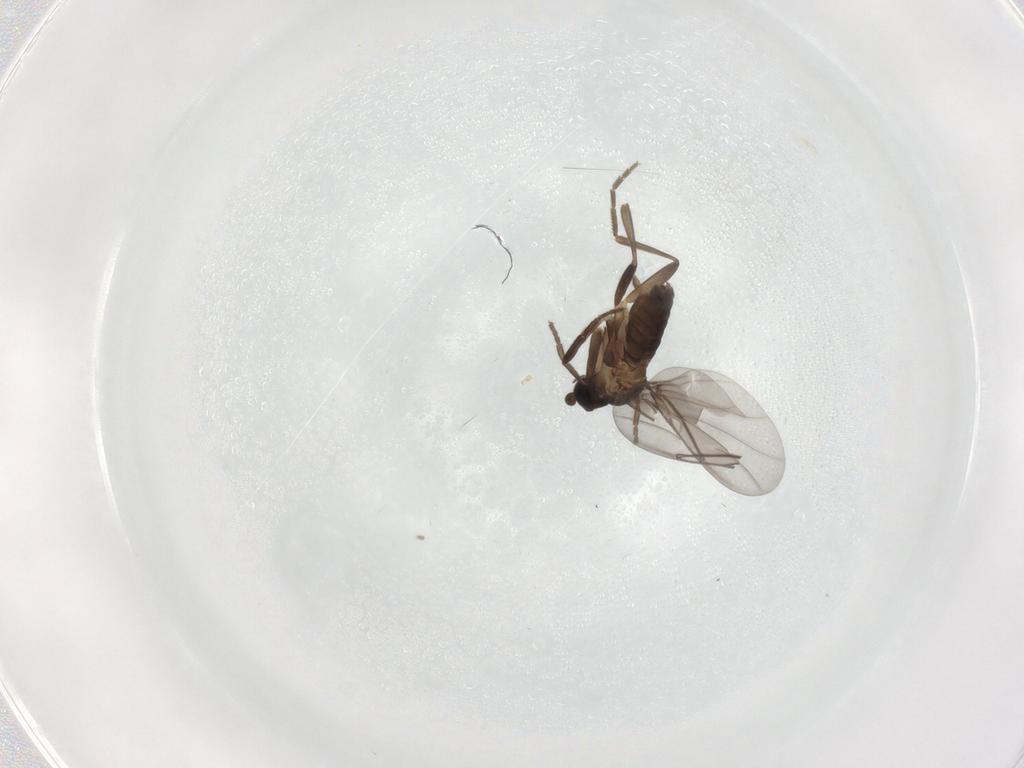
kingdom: Animalia
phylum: Arthropoda
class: Insecta
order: Diptera
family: Phoridae
